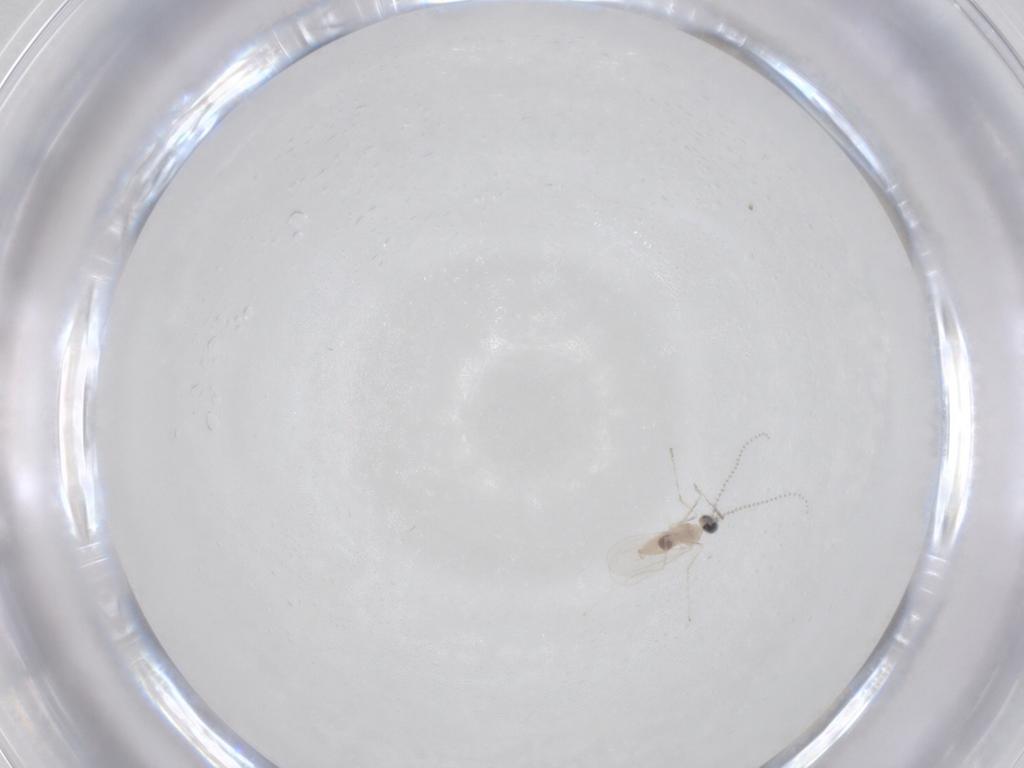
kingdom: Animalia
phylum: Arthropoda
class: Insecta
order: Diptera
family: Cecidomyiidae
